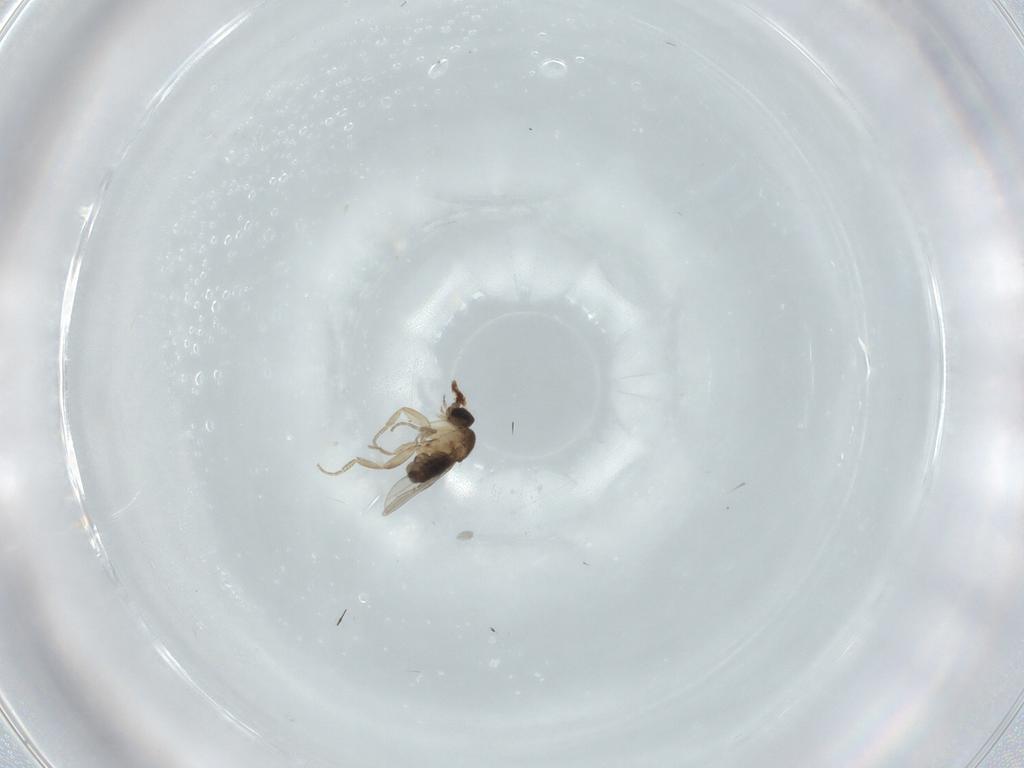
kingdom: Animalia
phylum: Arthropoda
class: Insecta
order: Diptera
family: Phoridae
